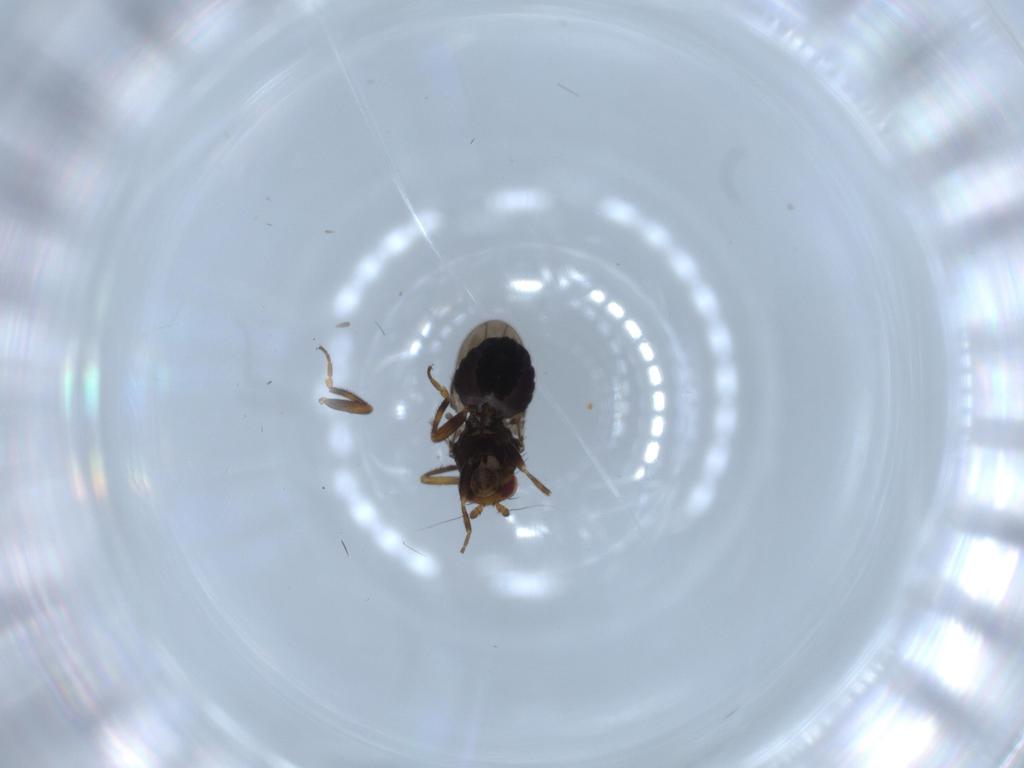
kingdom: Animalia
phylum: Arthropoda
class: Insecta
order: Diptera
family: Sphaeroceridae
